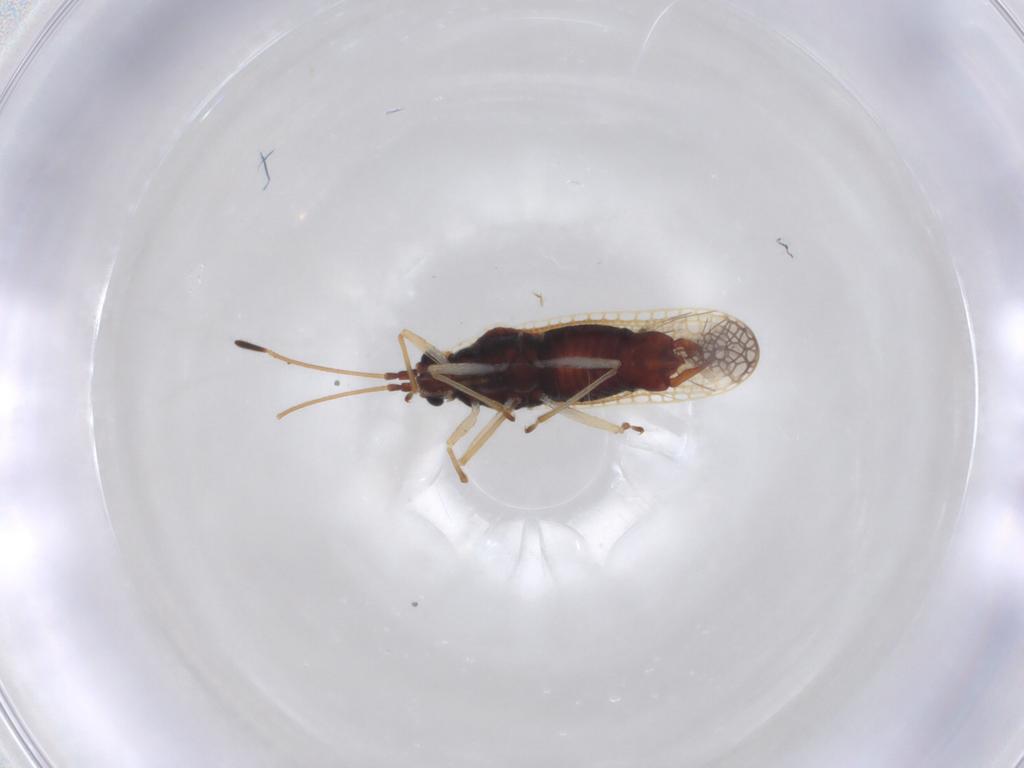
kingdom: Animalia
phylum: Arthropoda
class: Insecta
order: Hemiptera
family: Tingidae
